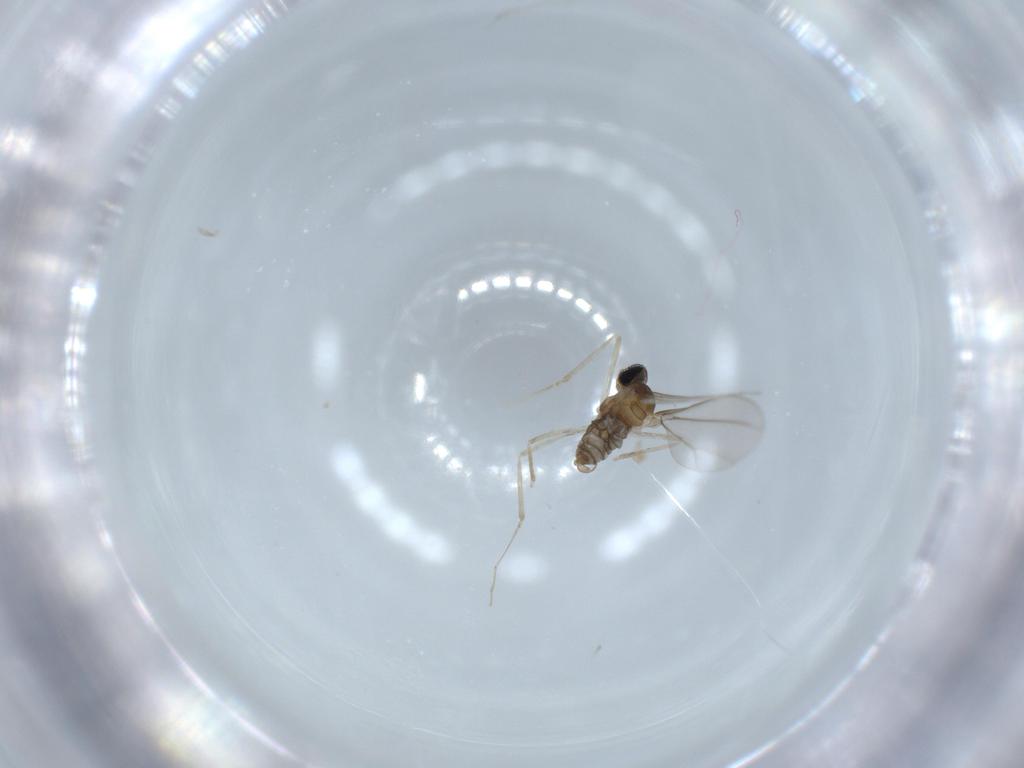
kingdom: Animalia
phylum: Arthropoda
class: Insecta
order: Diptera
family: Cecidomyiidae
